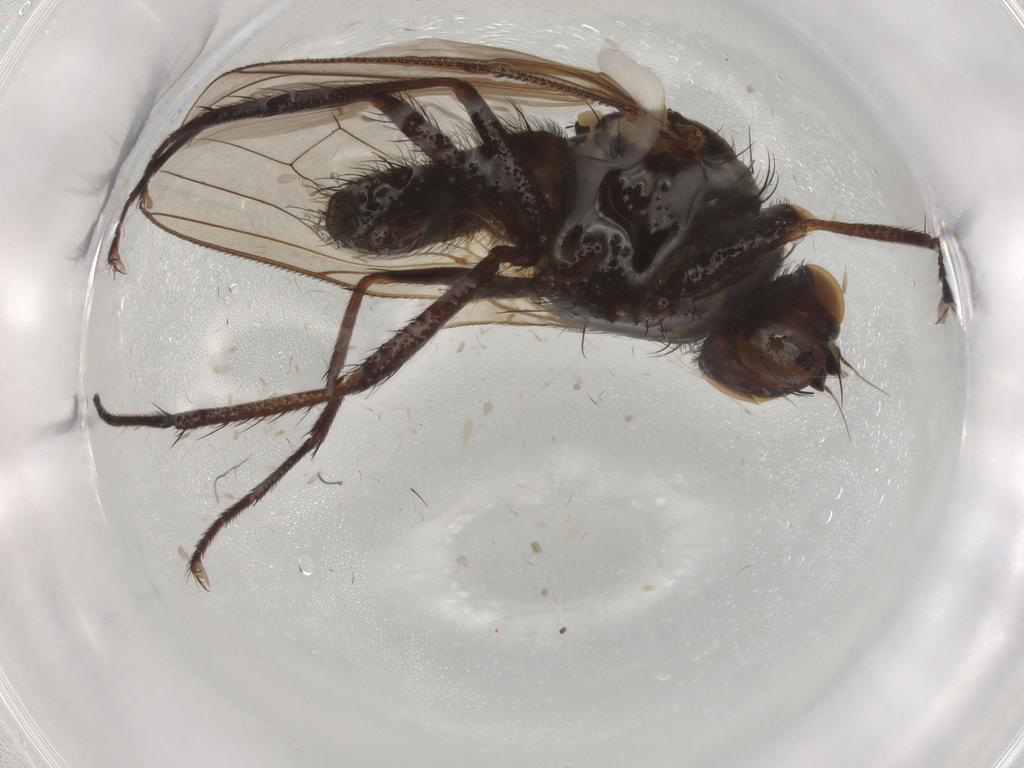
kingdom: Animalia
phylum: Arthropoda
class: Insecta
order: Diptera
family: Anthomyiidae
